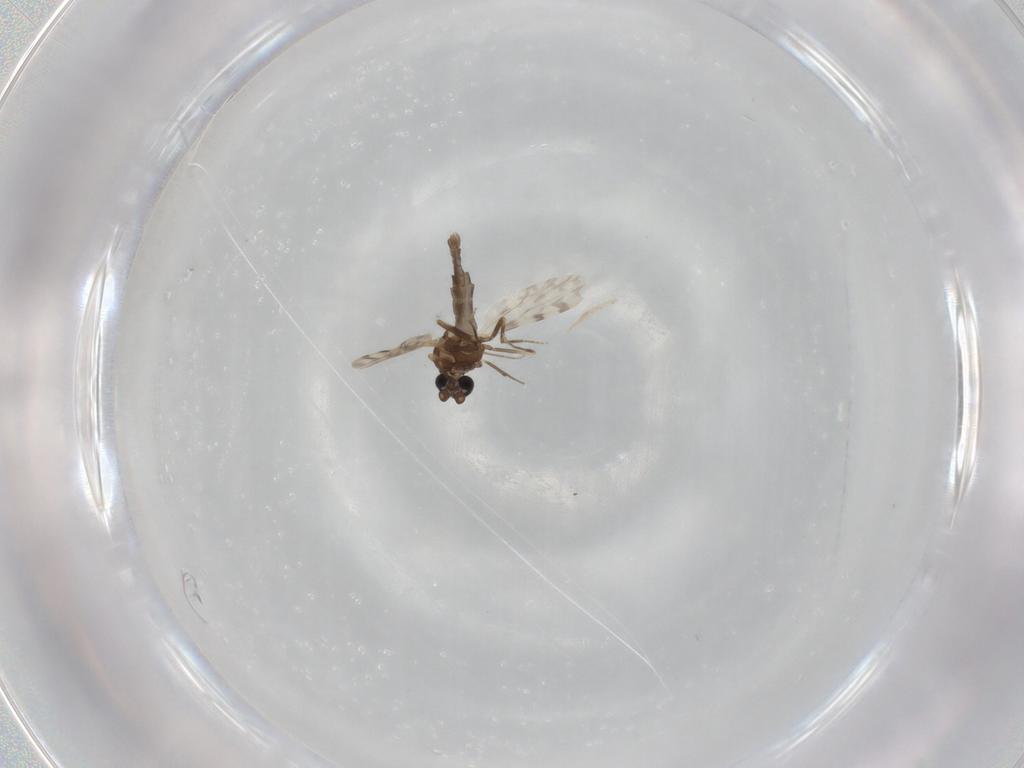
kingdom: Animalia
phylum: Arthropoda
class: Insecta
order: Diptera
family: Ceratopogonidae
